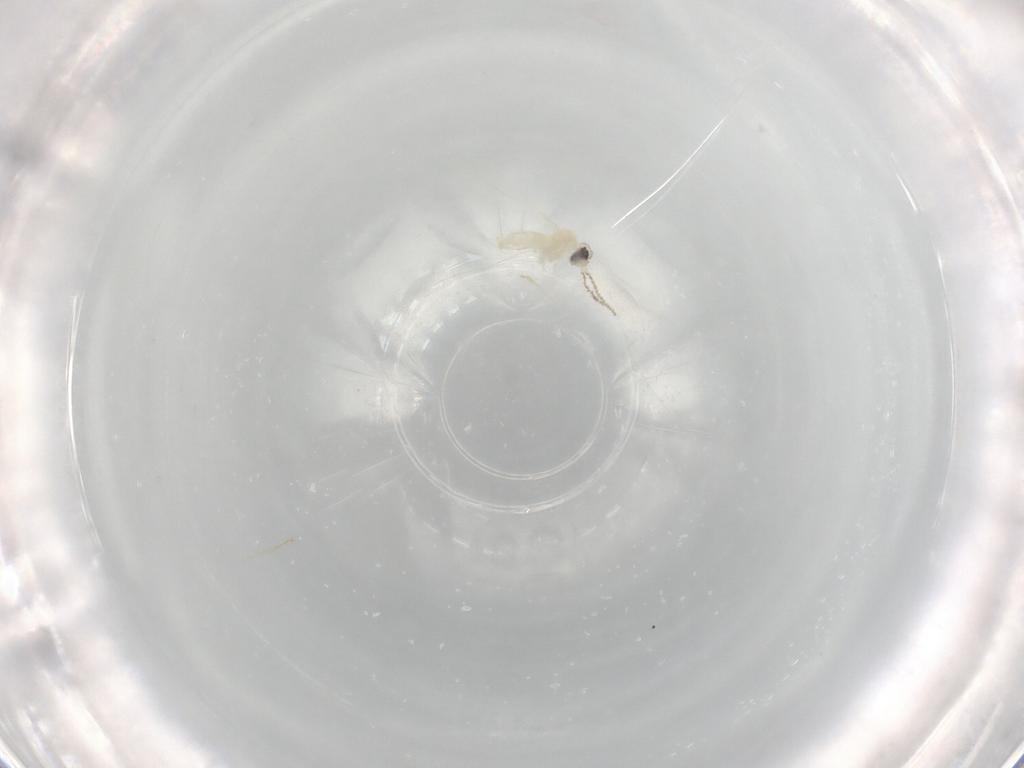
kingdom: Animalia
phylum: Arthropoda
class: Insecta
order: Diptera
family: Cecidomyiidae
